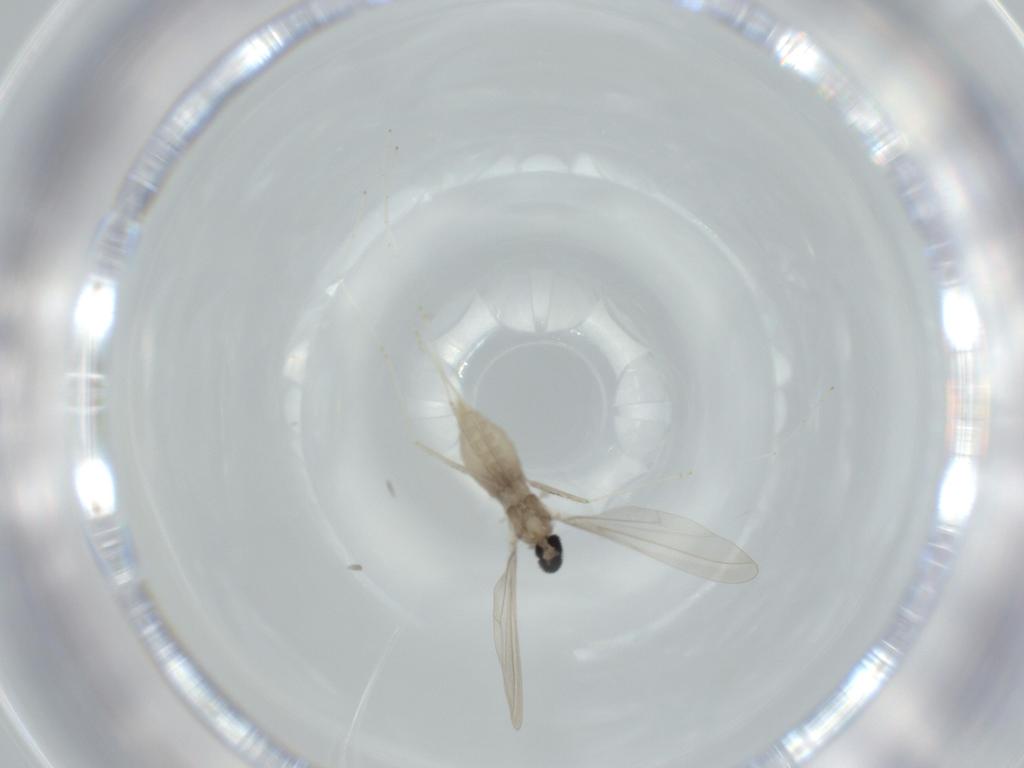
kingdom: Animalia
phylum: Arthropoda
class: Insecta
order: Diptera
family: Cecidomyiidae
